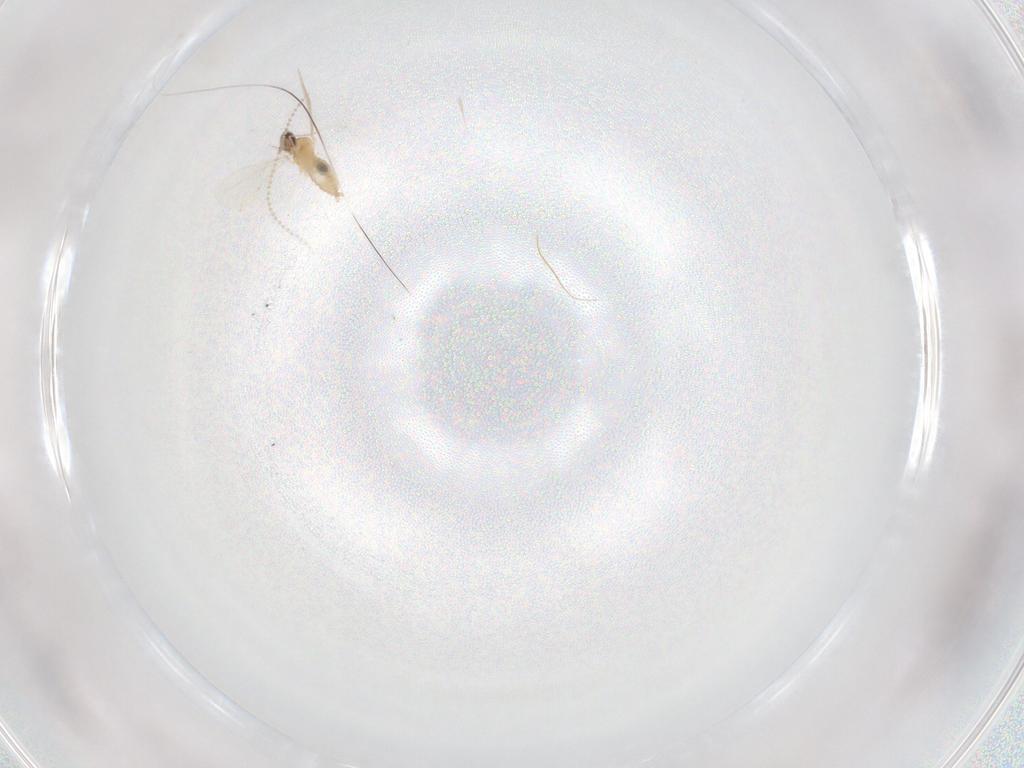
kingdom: Animalia
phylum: Arthropoda
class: Insecta
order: Diptera
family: Cecidomyiidae
